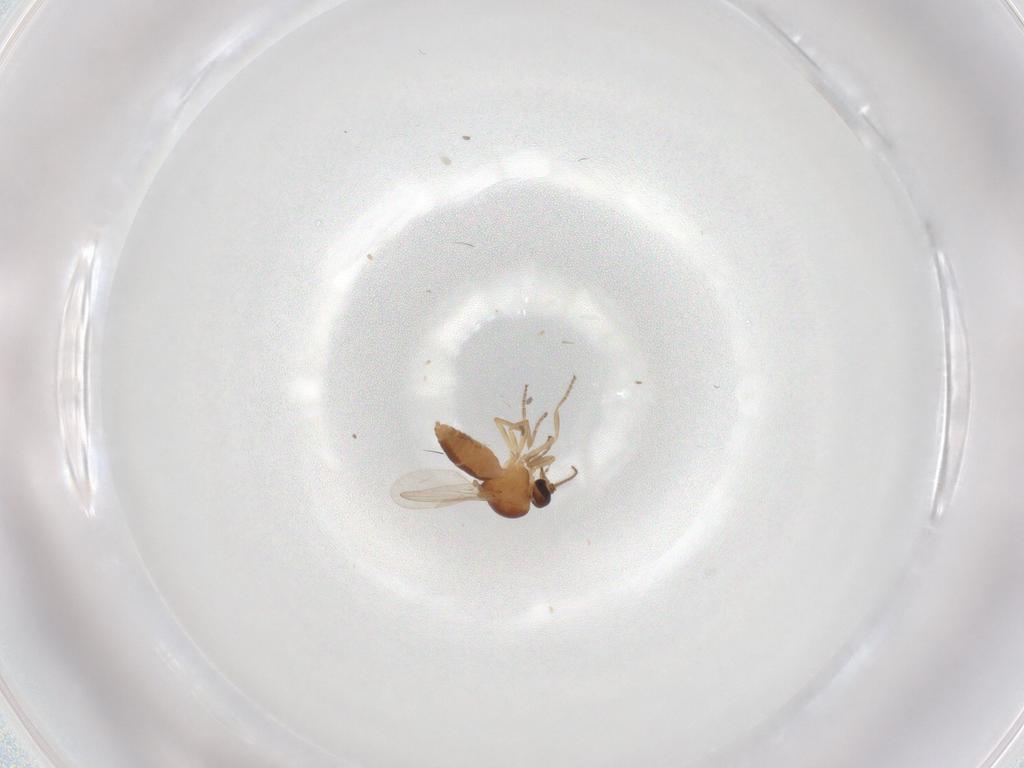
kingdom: Animalia
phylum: Arthropoda
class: Insecta
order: Diptera
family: Ceratopogonidae
